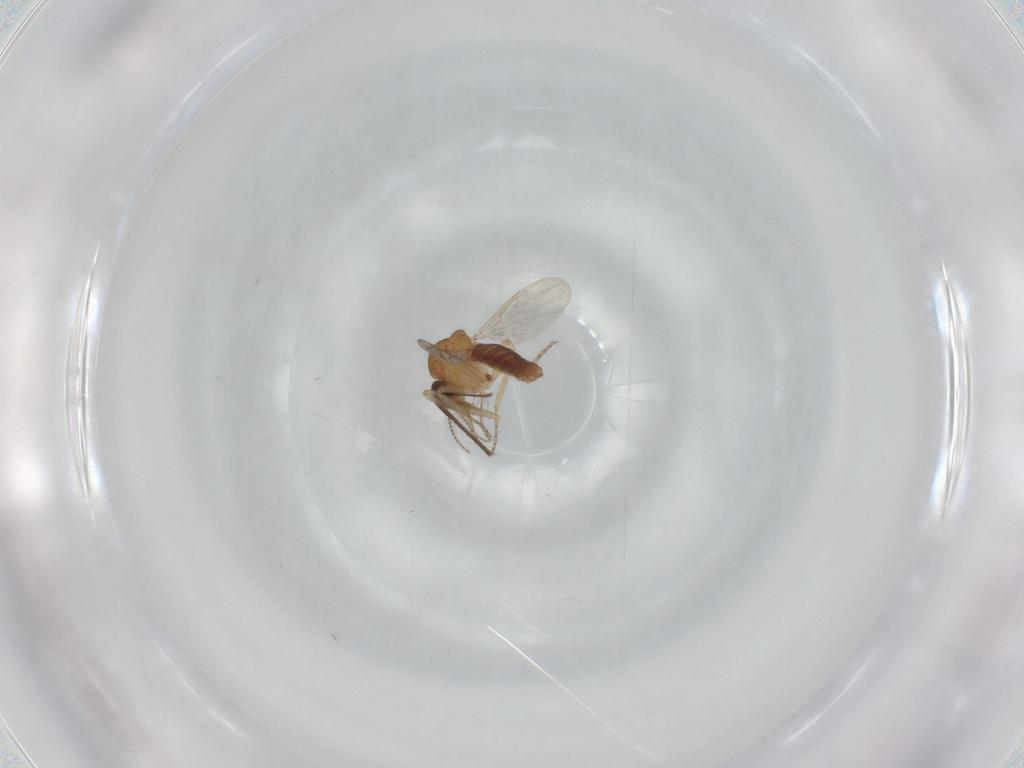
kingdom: Animalia
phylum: Arthropoda
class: Insecta
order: Diptera
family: Ceratopogonidae
